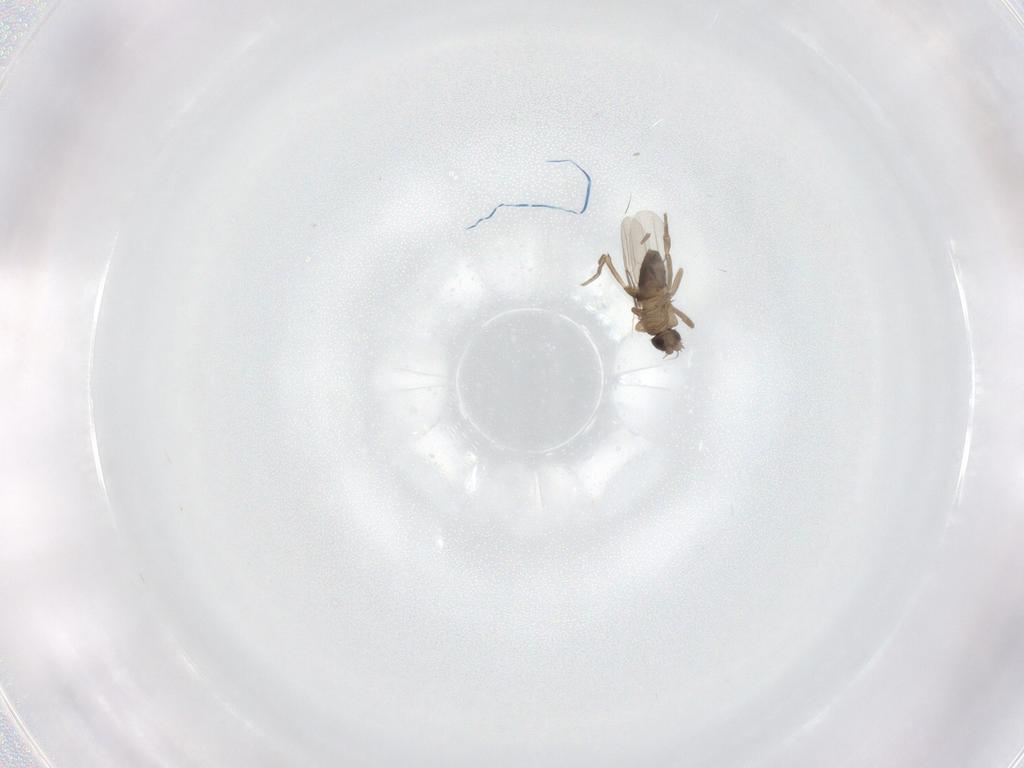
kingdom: Animalia
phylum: Arthropoda
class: Insecta
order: Diptera
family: Phoridae
